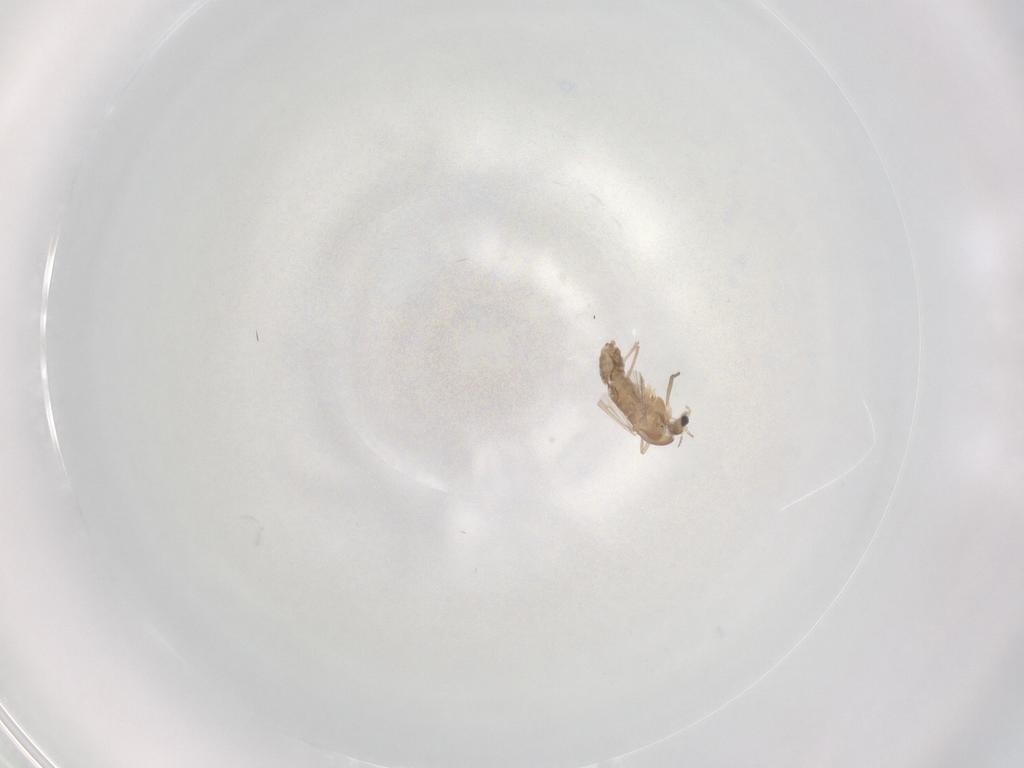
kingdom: Animalia
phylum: Arthropoda
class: Insecta
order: Diptera
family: Chironomidae
